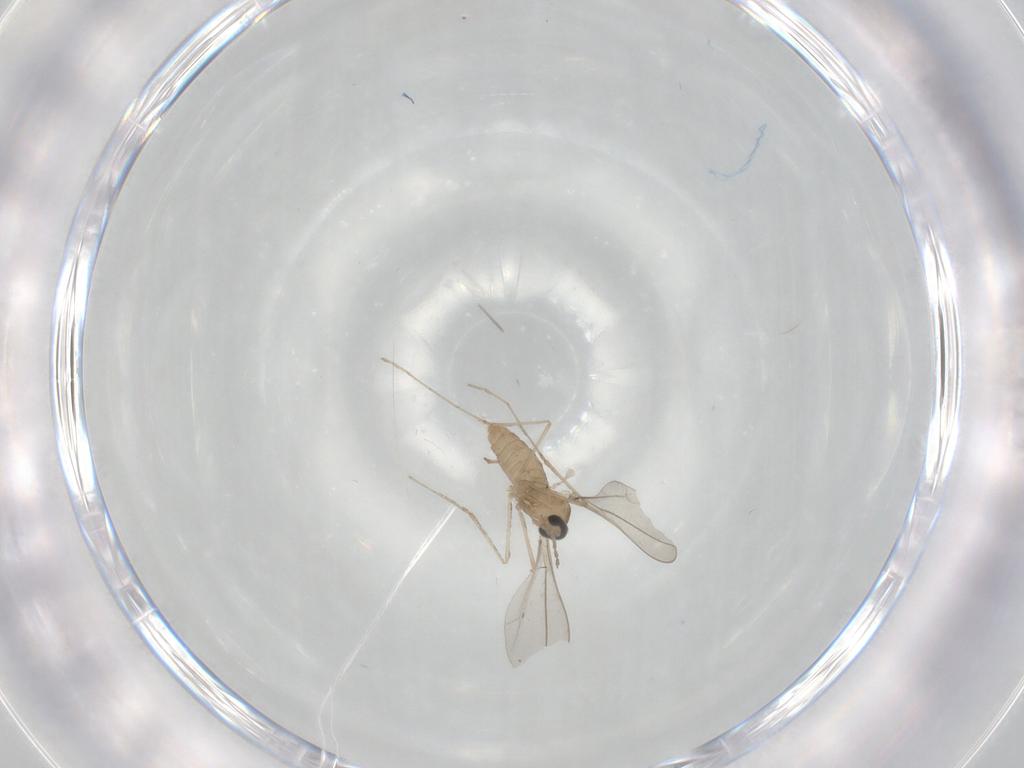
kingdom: Animalia
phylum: Arthropoda
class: Insecta
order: Diptera
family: Cecidomyiidae
